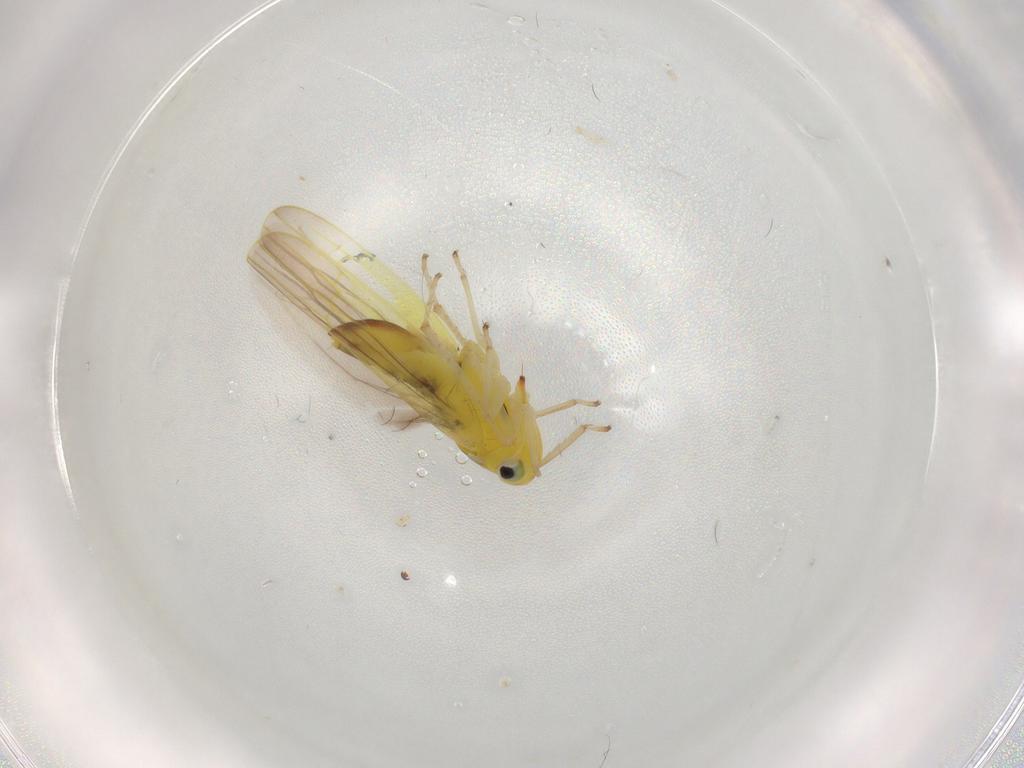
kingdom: Animalia
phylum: Arthropoda
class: Insecta
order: Hemiptera
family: Cicadellidae
